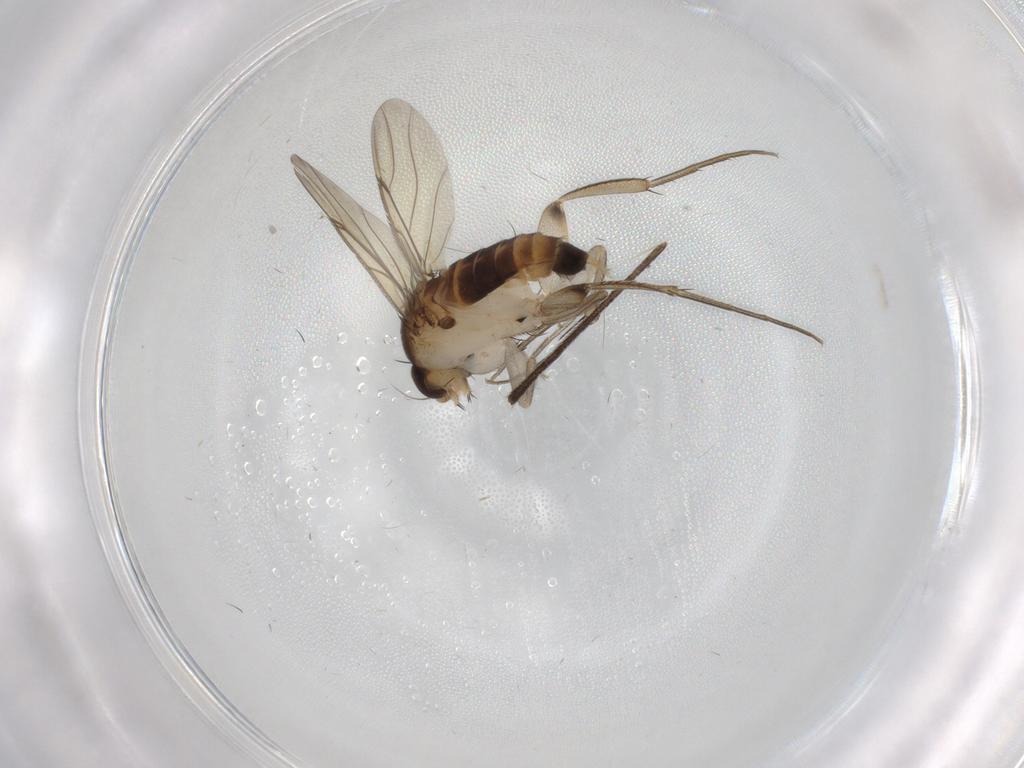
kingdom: Animalia
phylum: Arthropoda
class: Insecta
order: Diptera
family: Phoridae
